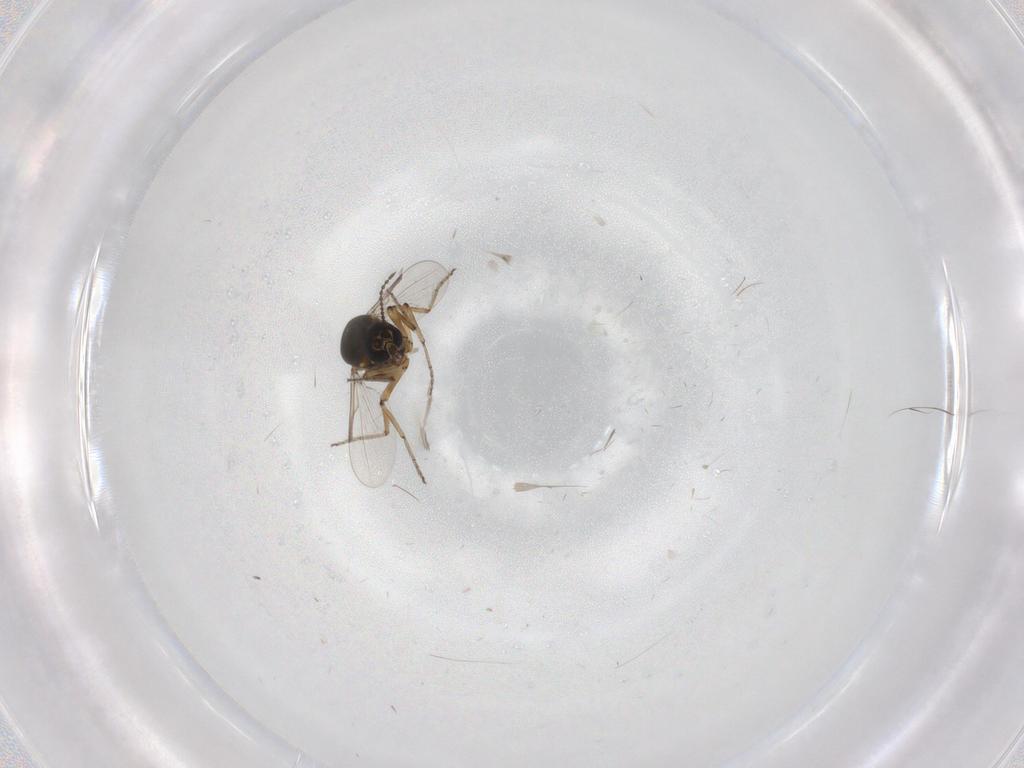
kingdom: Animalia
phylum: Arthropoda
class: Insecta
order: Diptera
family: Ceratopogonidae
